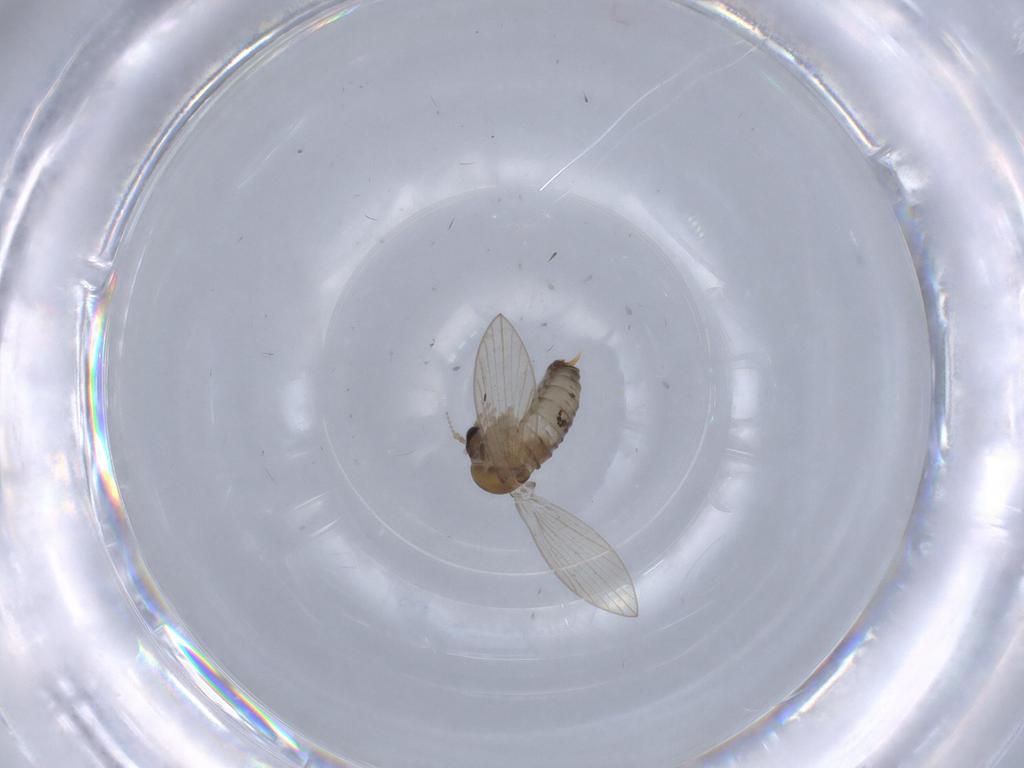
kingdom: Animalia
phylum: Arthropoda
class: Insecta
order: Diptera
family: Psychodidae
